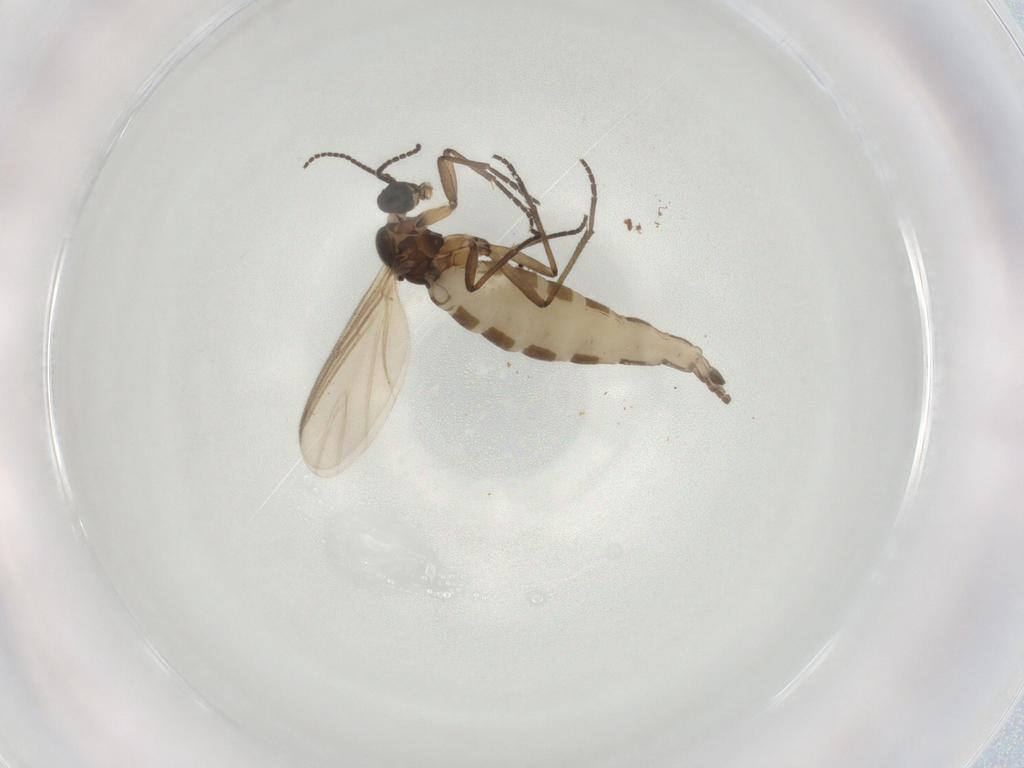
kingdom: Animalia
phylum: Arthropoda
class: Insecta
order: Diptera
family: Sciaridae
